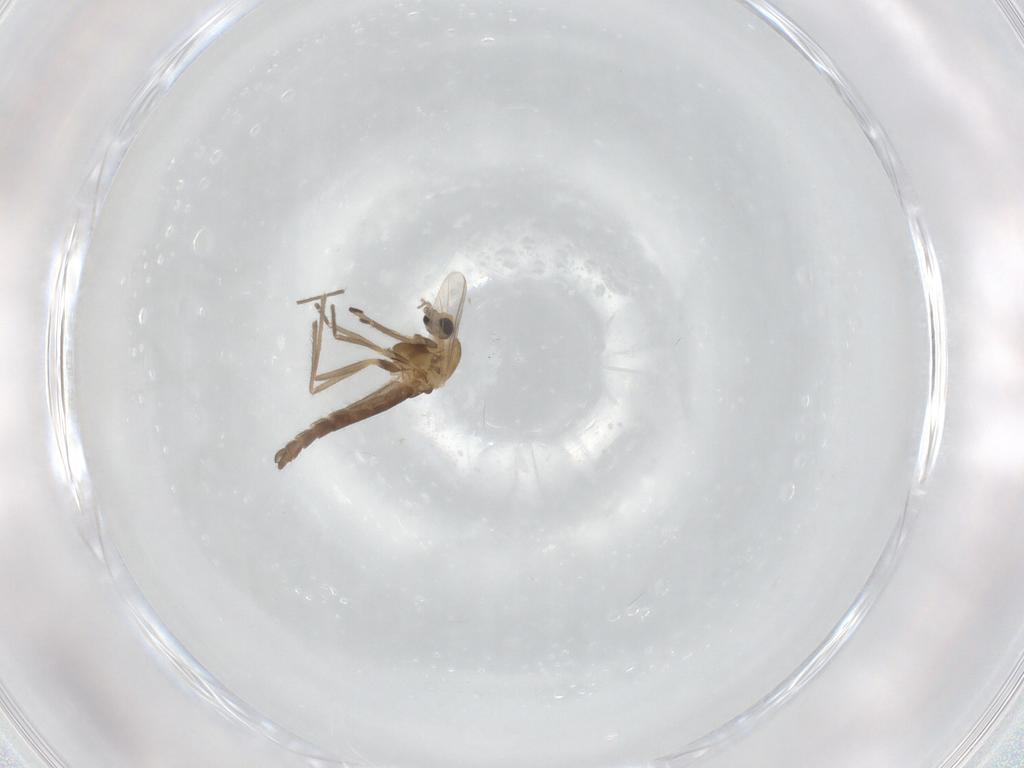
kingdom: Animalia
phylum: Arthropoda
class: Insecta
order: Diptera
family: Chironomidae
